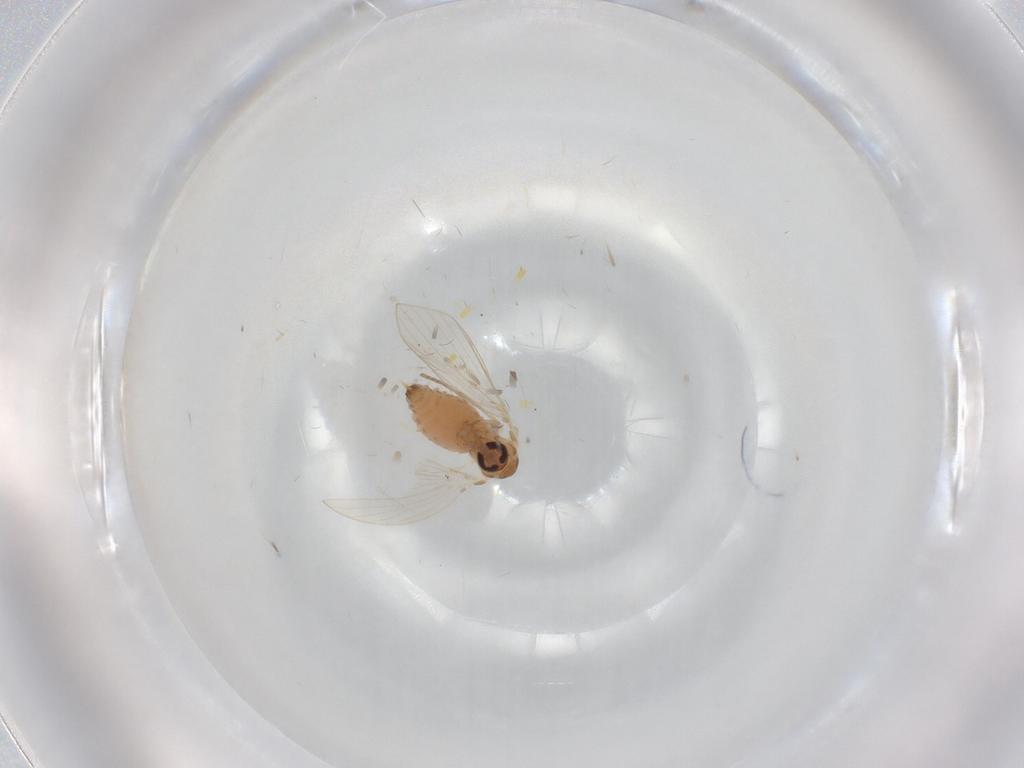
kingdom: Animalia
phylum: Arthropoda
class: Insecta
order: Diptera
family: Psychodidae
